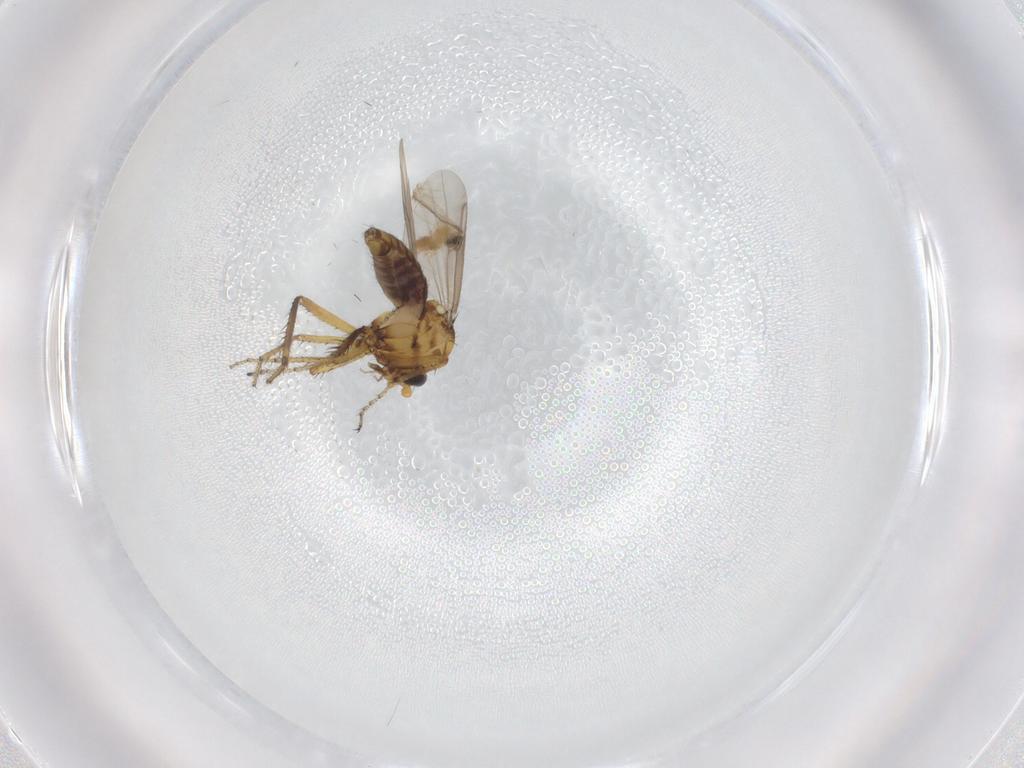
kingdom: Animalia
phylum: Arthropoda
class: Insecta
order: Diptera
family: Ceratopogonidae
